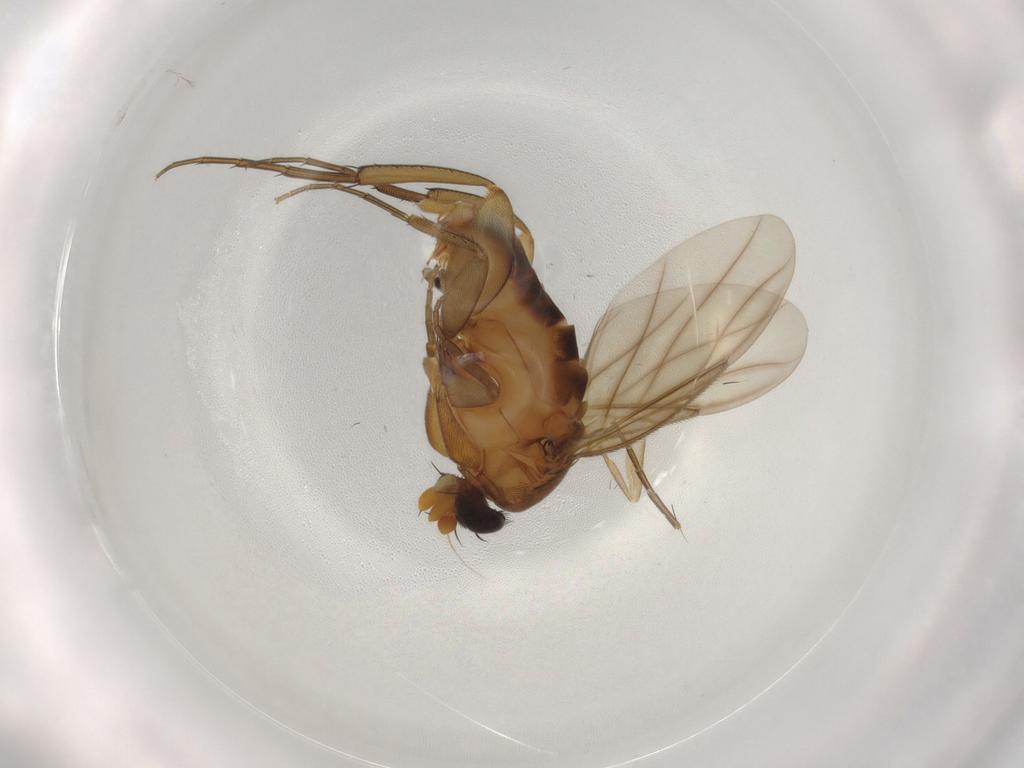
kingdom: Animalia
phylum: Arthropoda
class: Insecta
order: Diptera
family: Chironomidae
